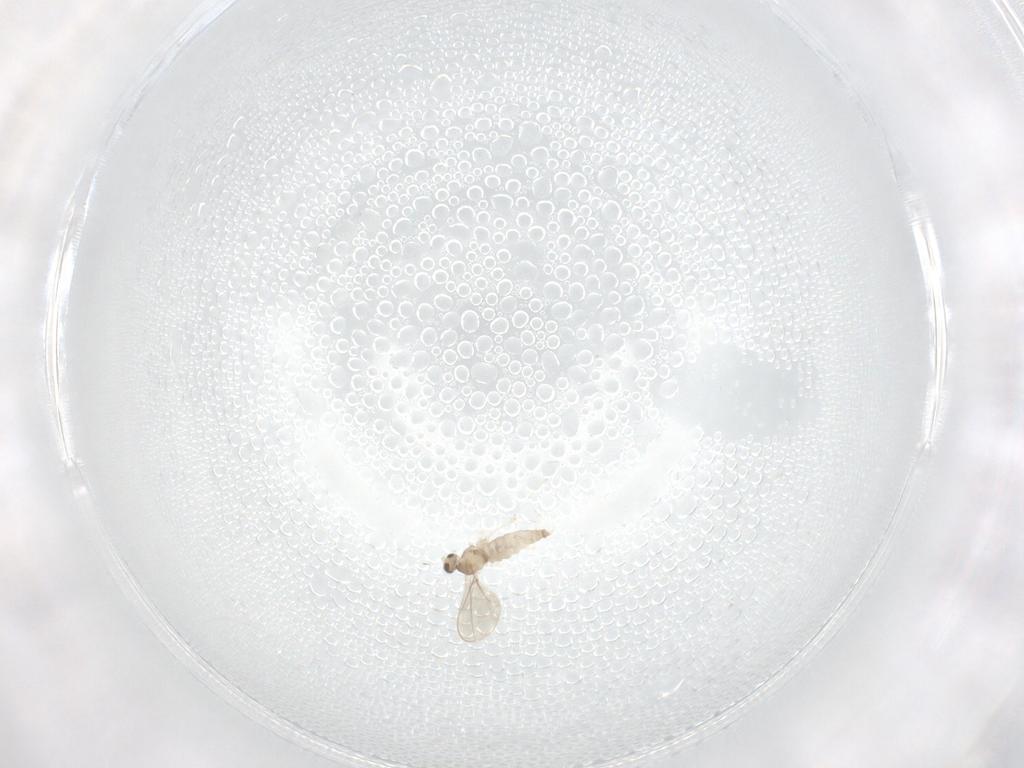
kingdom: Animalia
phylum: Arthropoda
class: Insecta
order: Diptera
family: Cecidomyiidae
